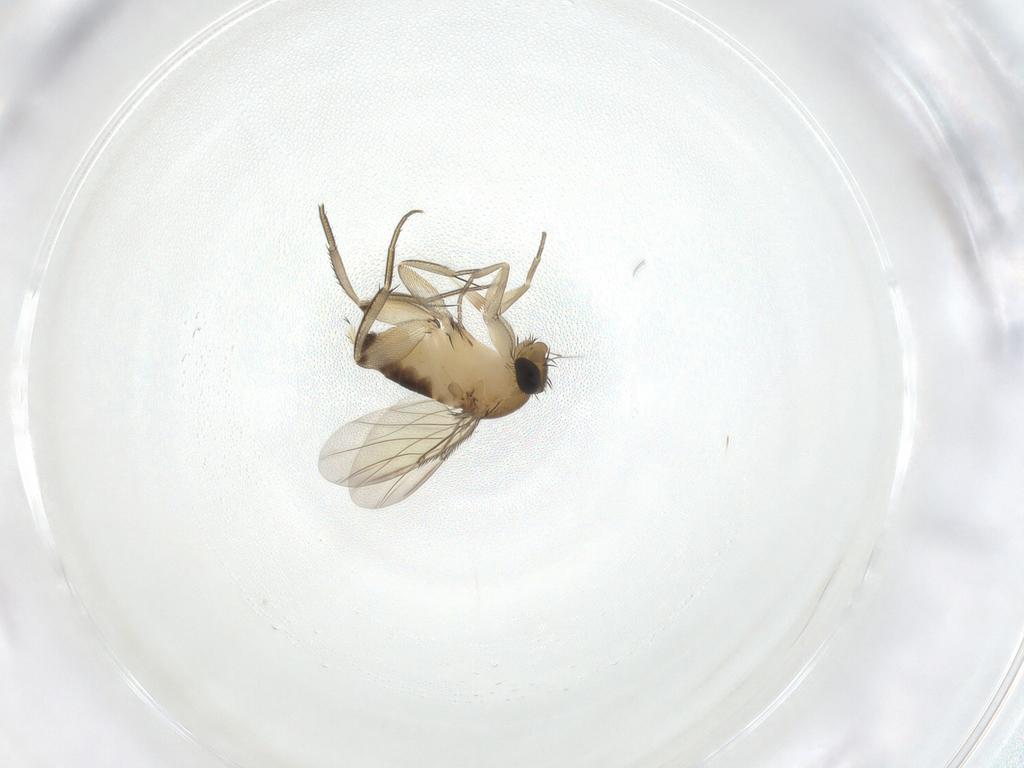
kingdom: Animalia
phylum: Arthropoda
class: Insecta
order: Diptera
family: Phoridae
